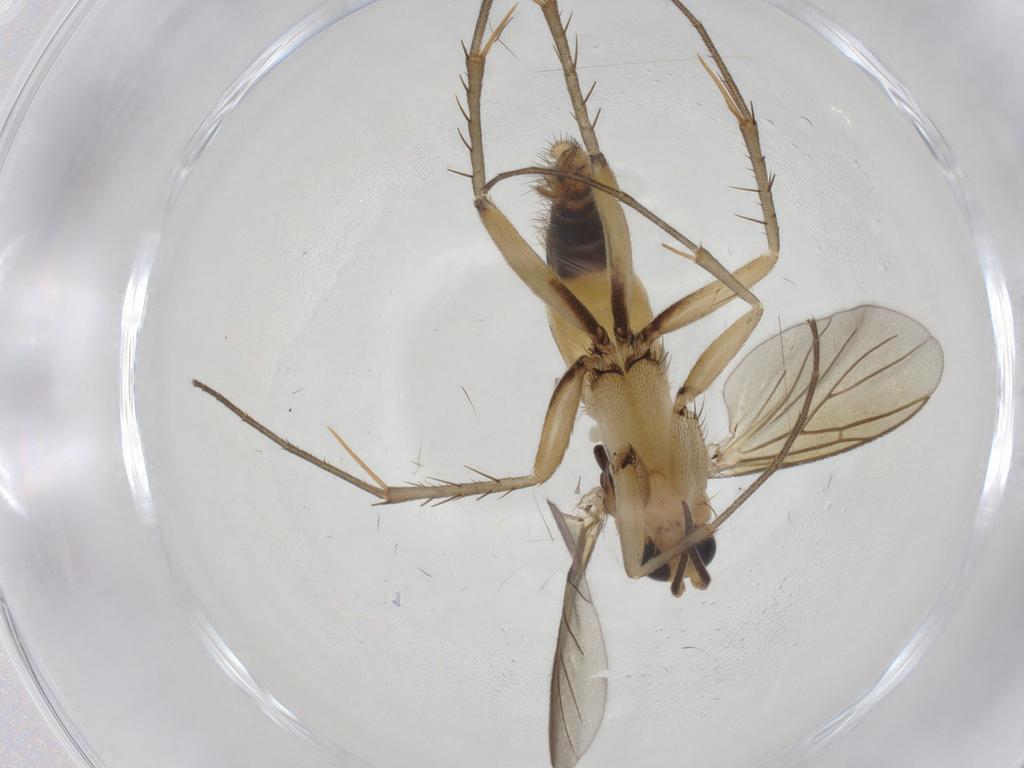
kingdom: Animalia
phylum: Arthropoda
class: Insecta
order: Diptera
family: Mycetophilidae
